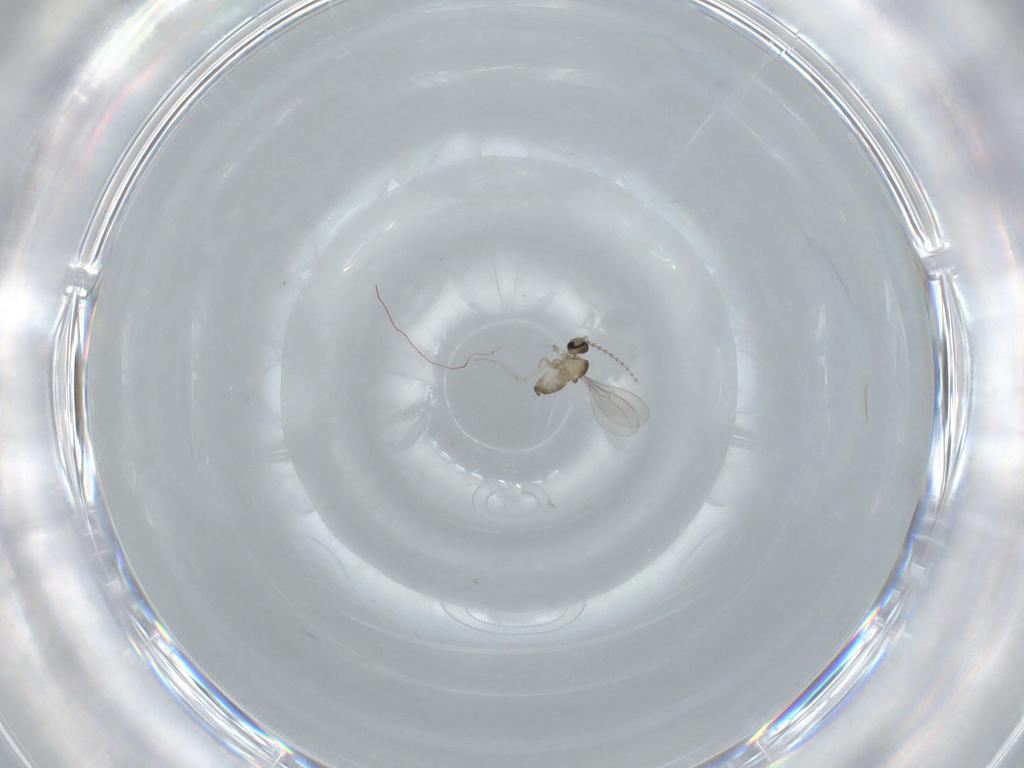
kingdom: Animalia
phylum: Arthropoda
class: Insecta
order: Diptera
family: Cecidomyiidae
